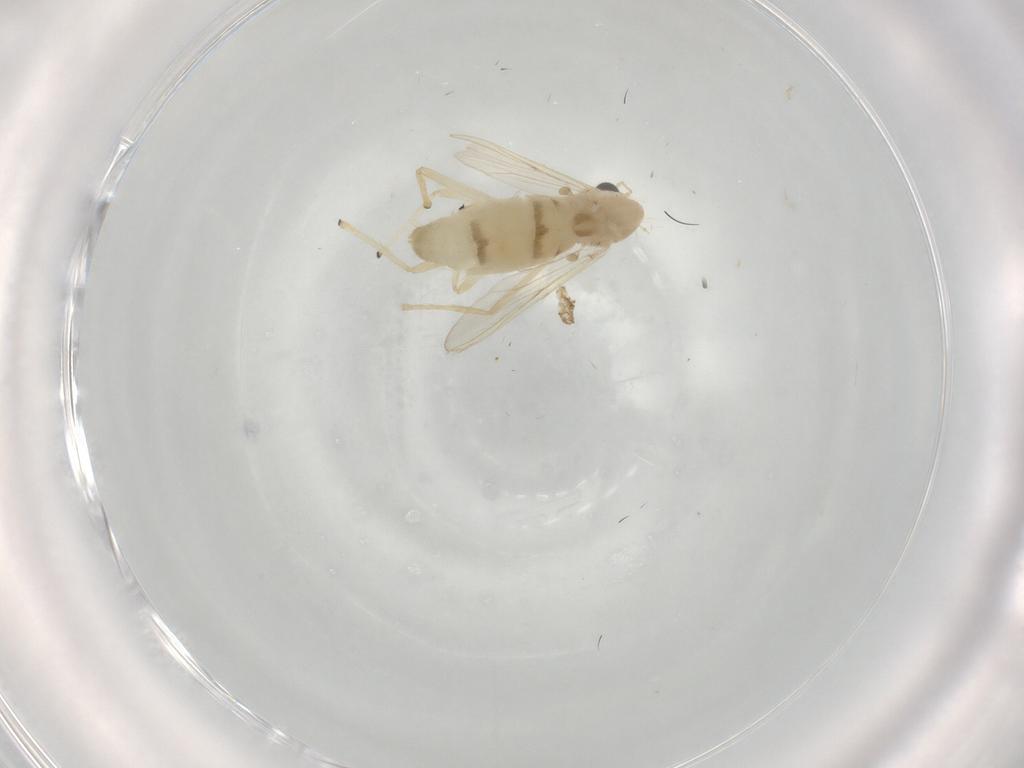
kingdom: Animalia
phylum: Arthropoda
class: Insecta
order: Diptera
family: Chironomidae
